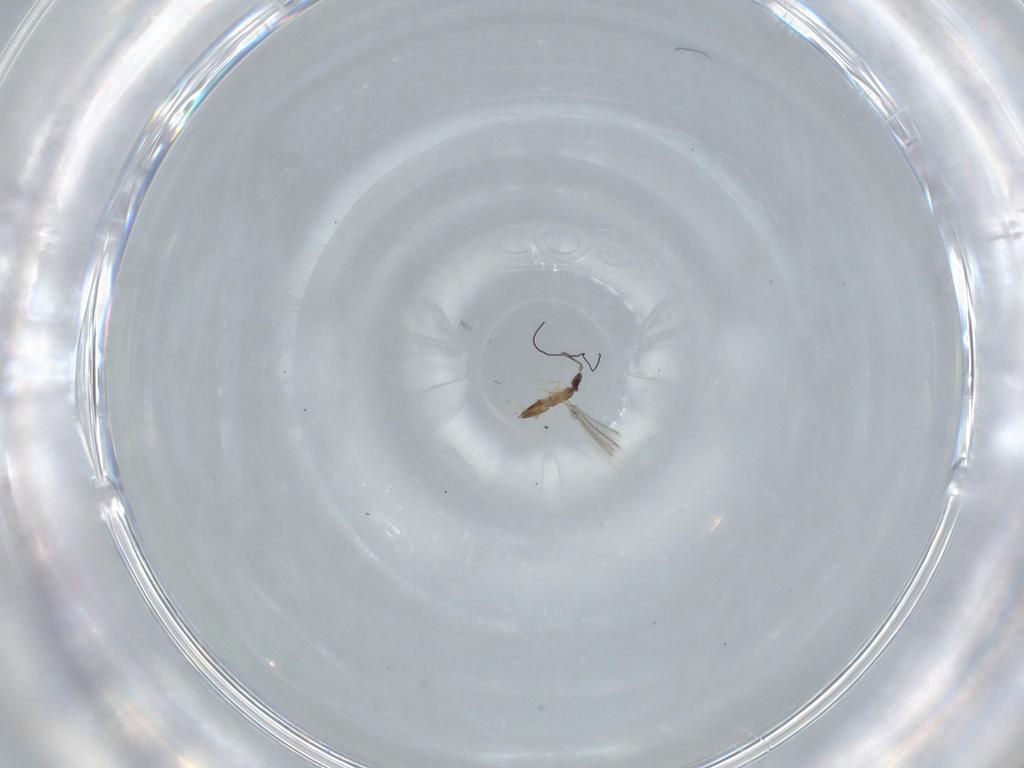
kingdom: Animalia
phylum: Arthropoda
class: Insecta
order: Hymenoptera
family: Mymaridae
